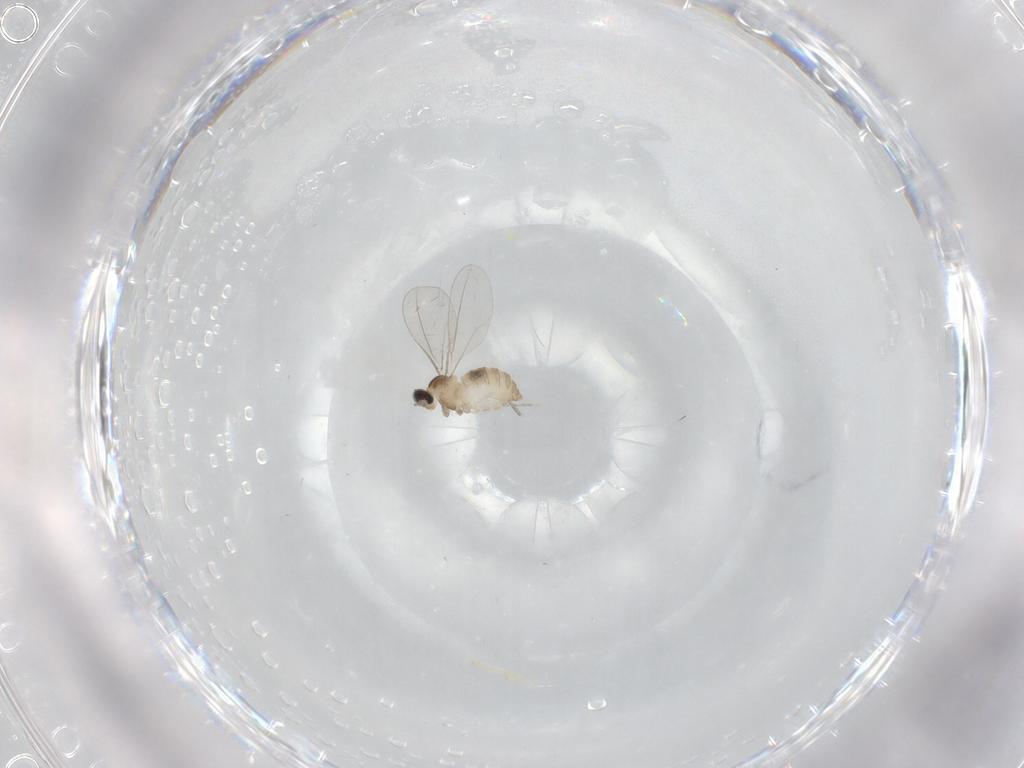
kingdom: Animalia
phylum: Arthropoda
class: Insecta
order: Diptera
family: Cecidomyiidae
